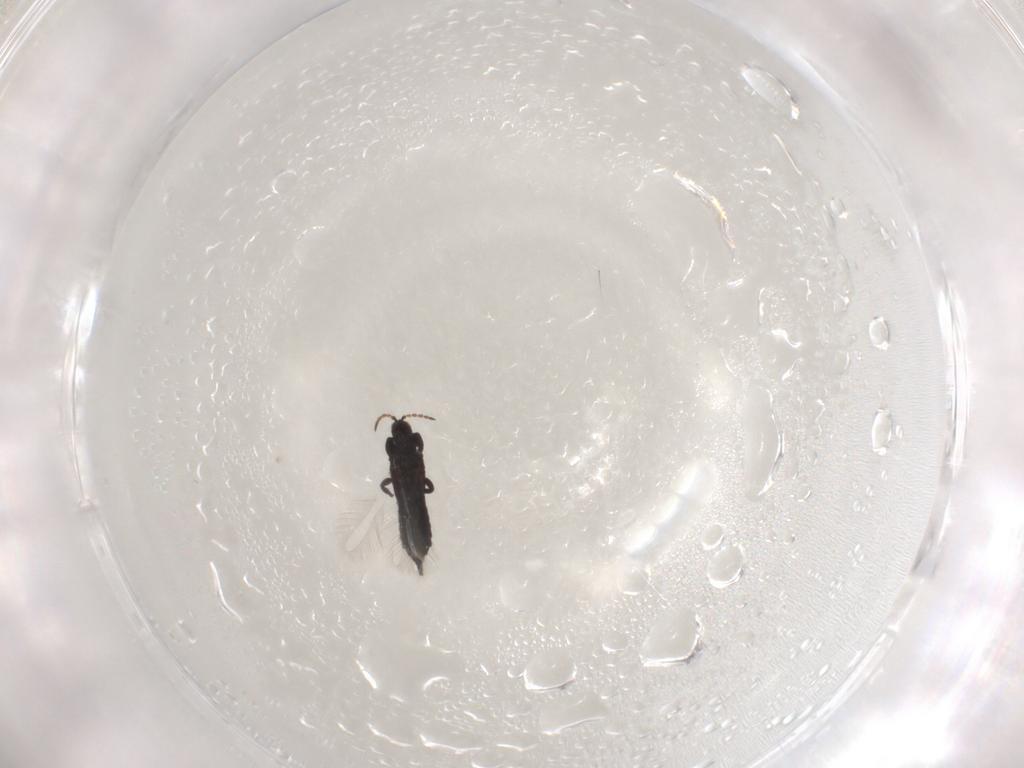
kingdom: Animalia
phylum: Arthropoda
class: Insecta
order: Thysanoptera
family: Phlaeothripidae
